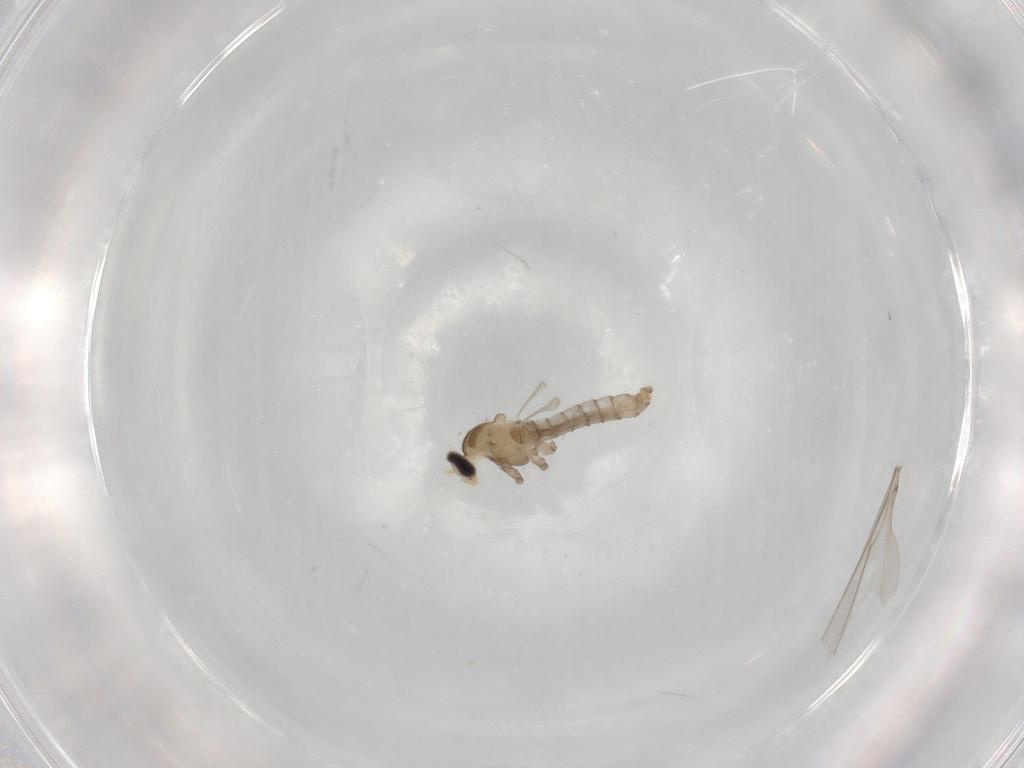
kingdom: Animalia
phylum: Arthropoda
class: Insecta
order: Diptera
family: Cecidomyiidae
